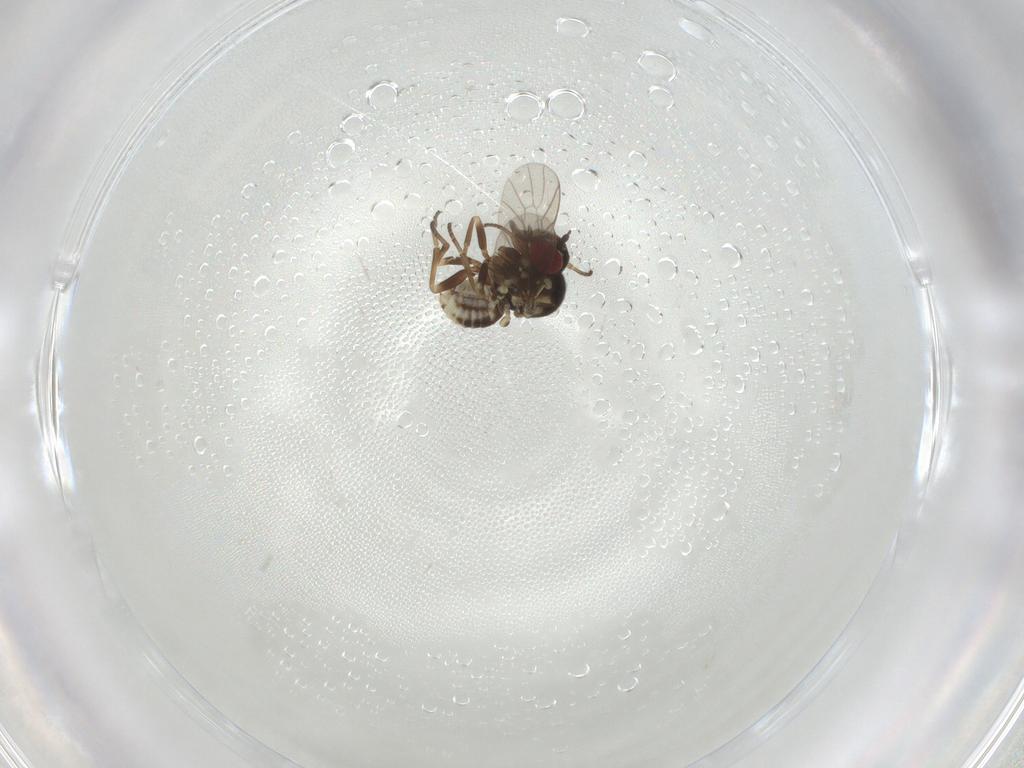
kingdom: Animalia
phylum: Arthropoda
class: Insecta
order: Diptera
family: Bombyliidae
